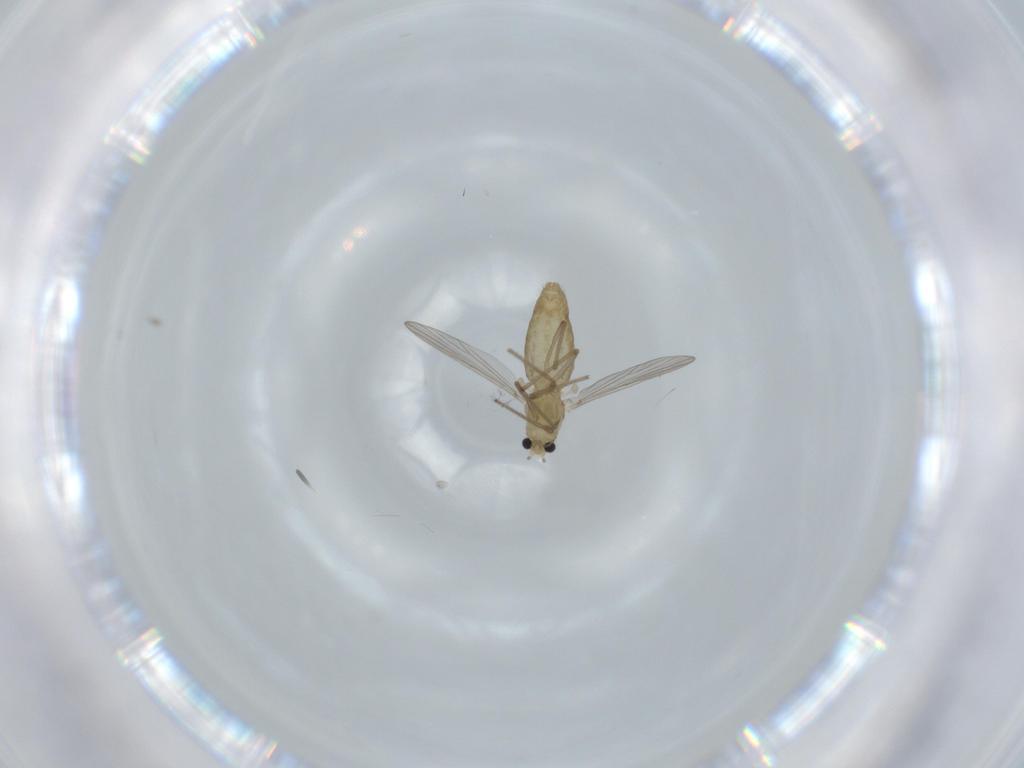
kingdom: Animalia
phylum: Arthropoda
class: Insecta
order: Diptera
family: Chironomidae
